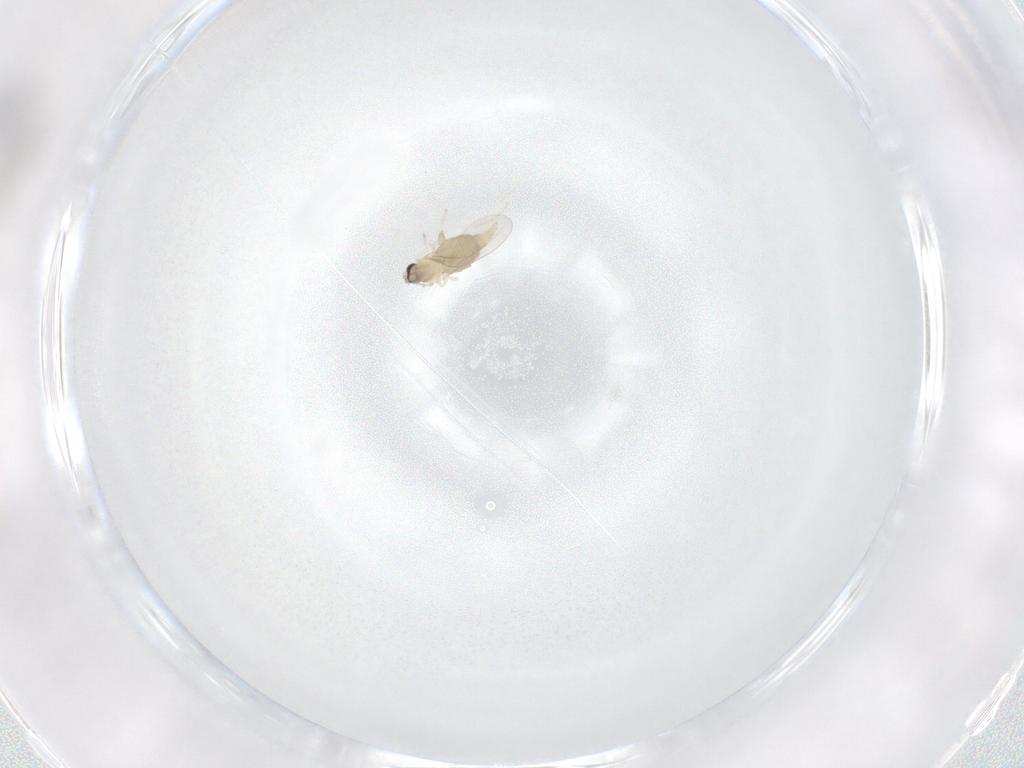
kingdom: Animalia
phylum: Arthropoda
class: Insecta
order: Diptera
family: Cecidomyiidae
